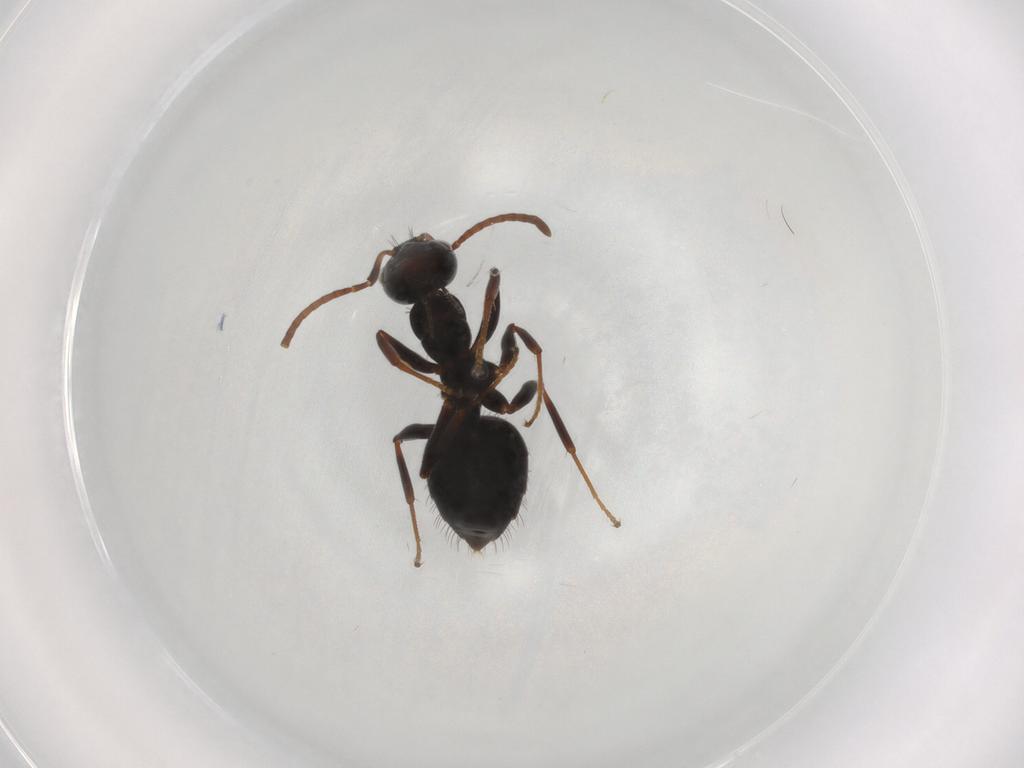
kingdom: Animalia
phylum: Arthropoda
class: Insecta
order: Hymenoptera
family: Formicidae
